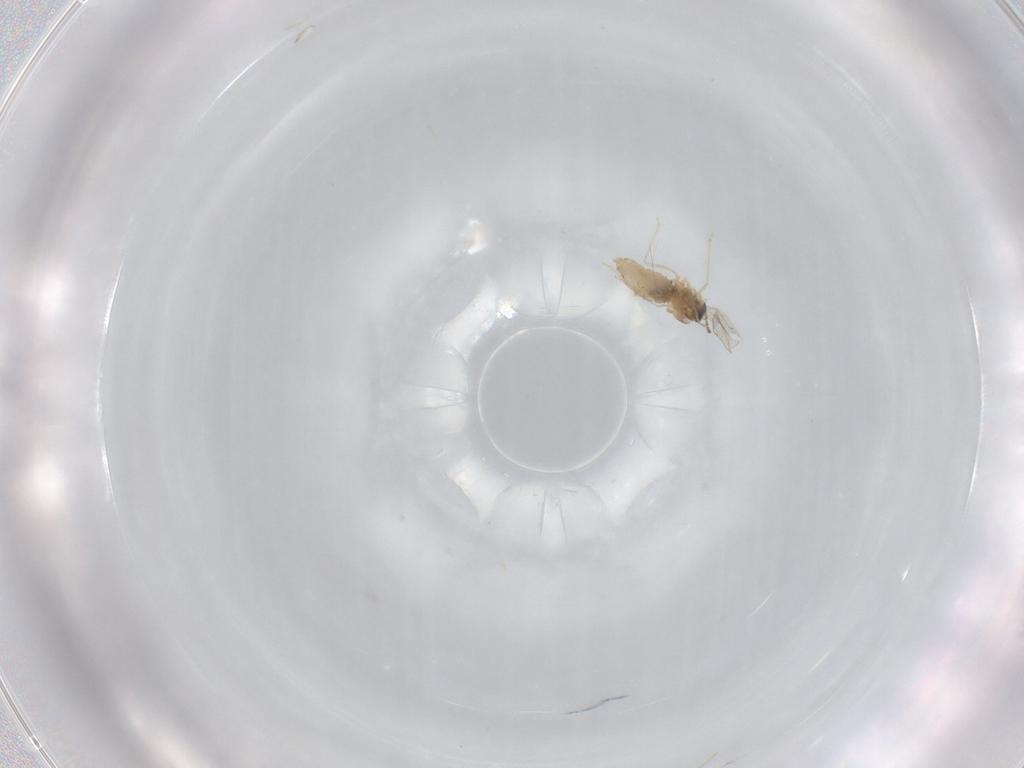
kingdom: Animalia
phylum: Arthropoda
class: Insecta
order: Diptera
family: Cecidomyiidae
